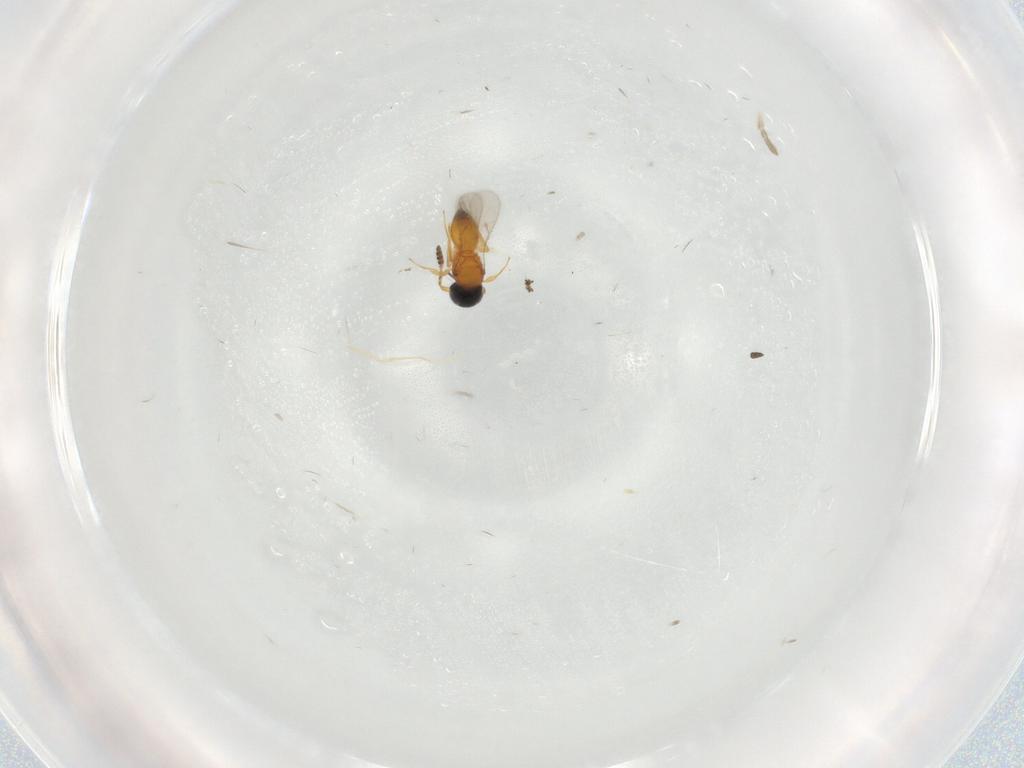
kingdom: Animalia
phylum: Arthropoda
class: Insecta
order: Hymenoptera
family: Scelionidae
